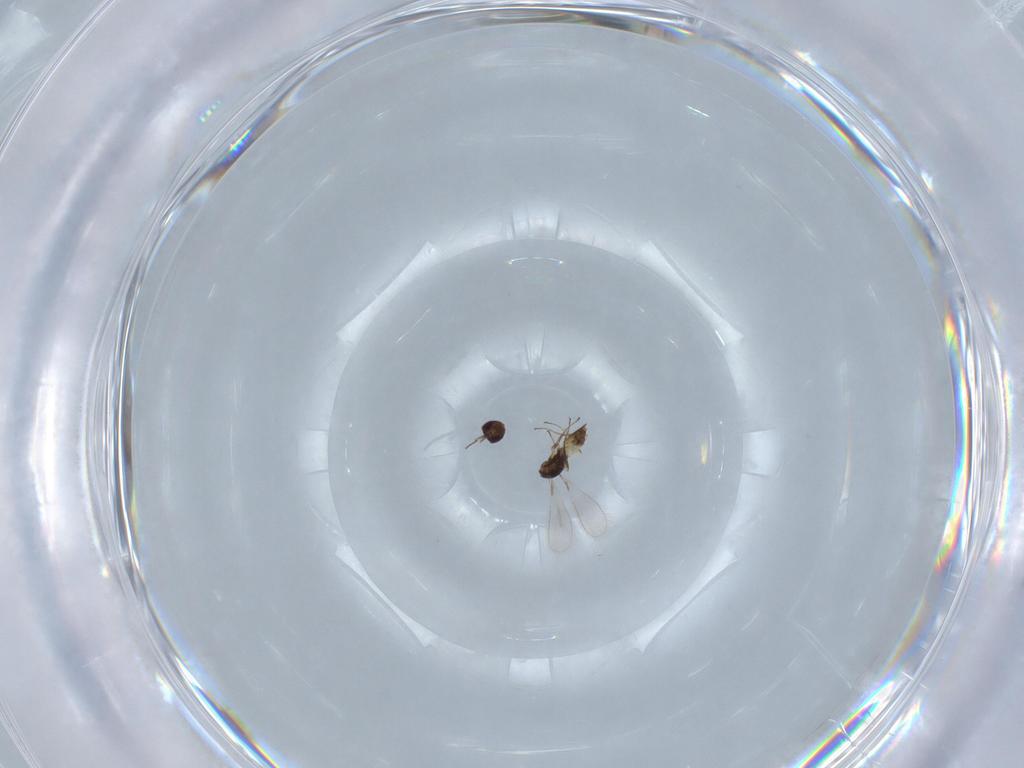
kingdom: Animalia
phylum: Arthropoda
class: Insecta
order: Hymenoptera
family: Mymaridae
